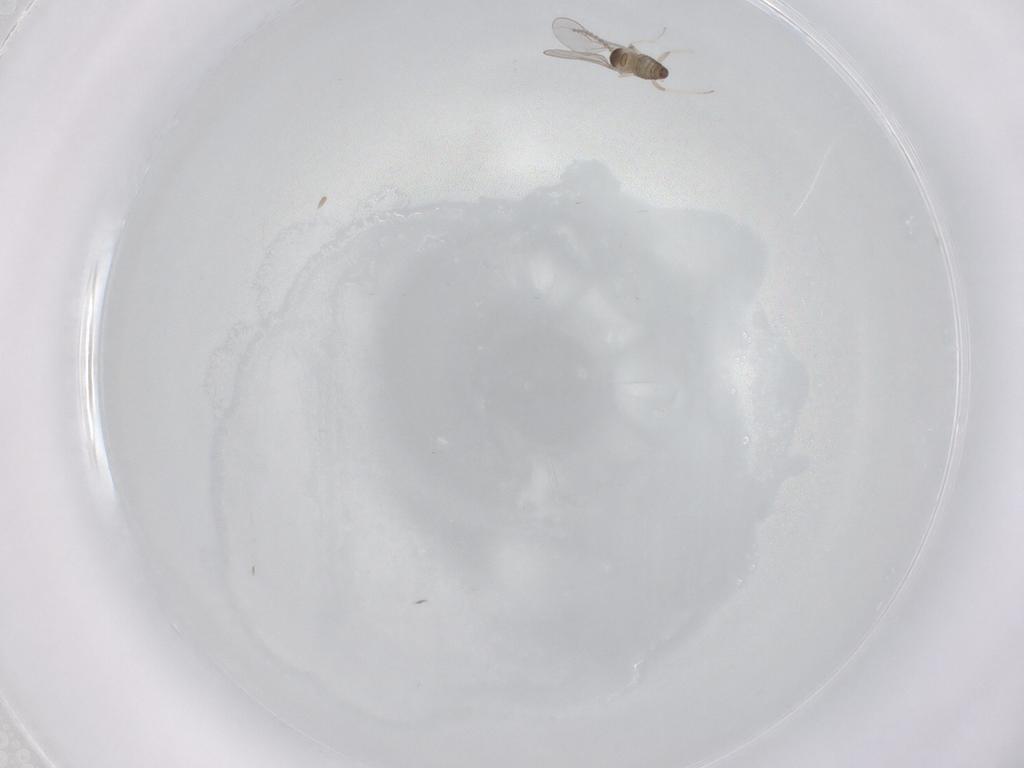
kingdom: Animalia
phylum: Arthropoda
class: Insecta
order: Diptera
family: Cecidomyiidae
